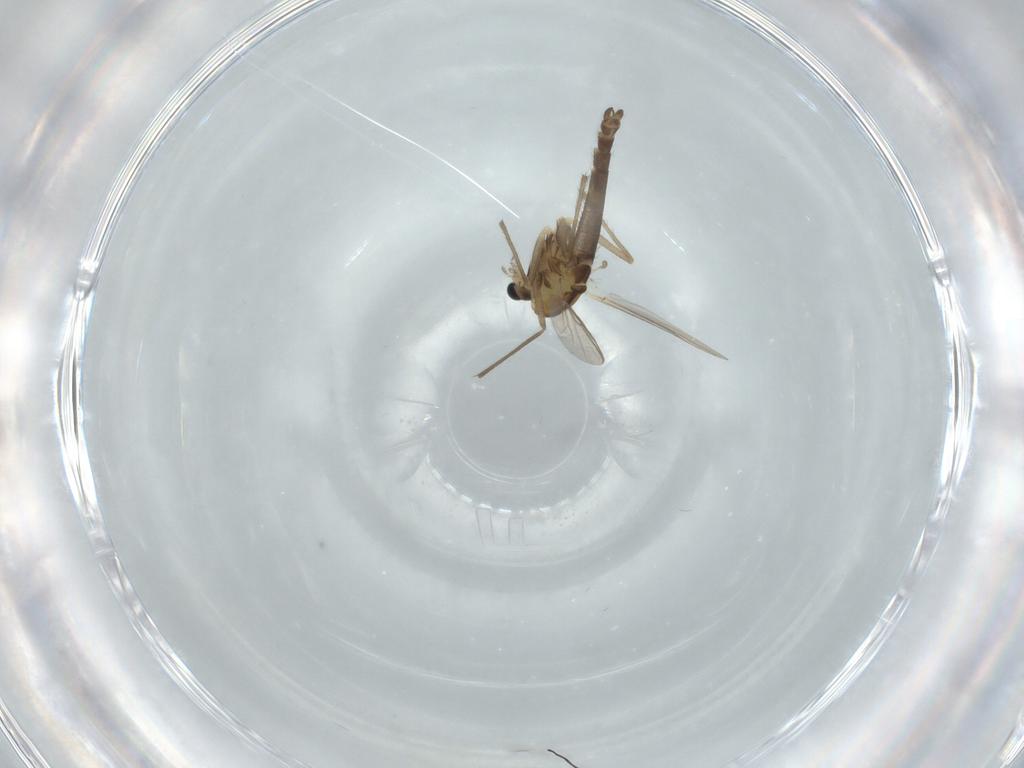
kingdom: Animalia
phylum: Arthropoda
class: Insecta
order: Diptera
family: Chironomidae
